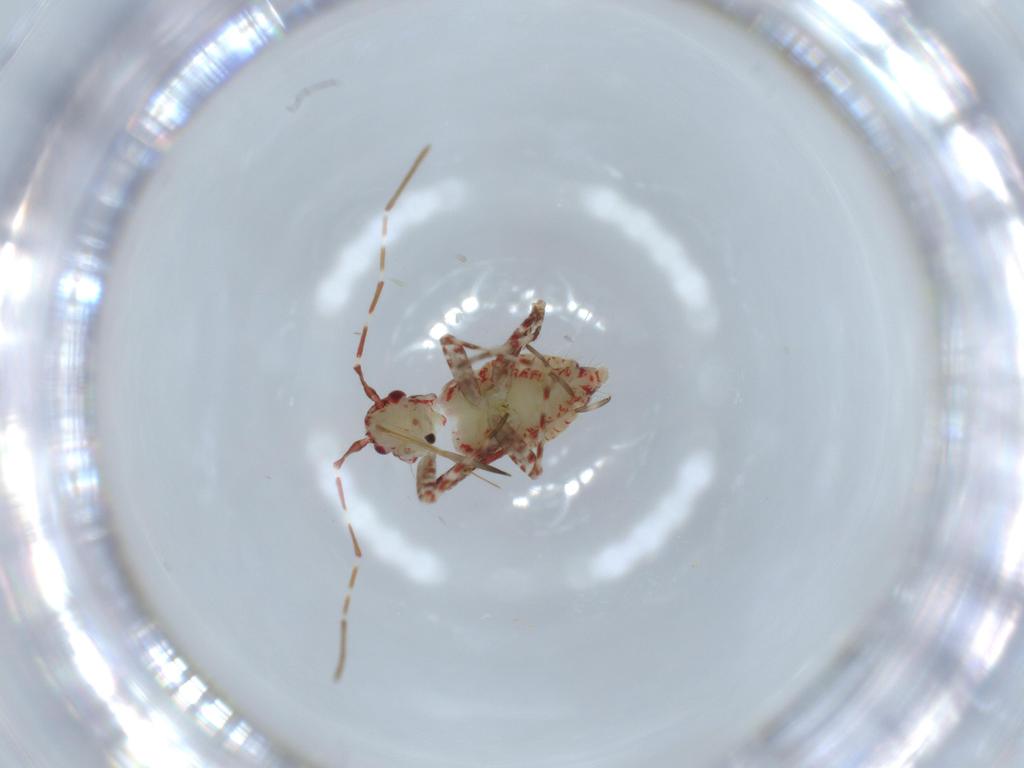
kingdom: Animalia
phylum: Arthropoda
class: Insecta
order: Hemiptera
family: Miridae
